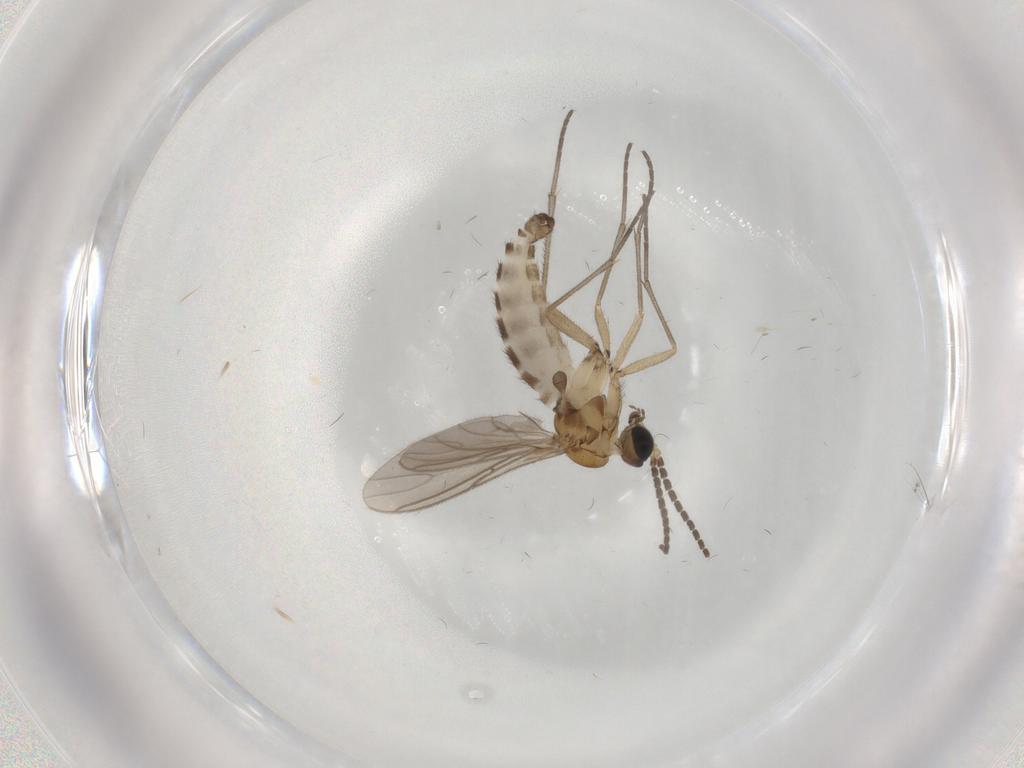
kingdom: Animalia
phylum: Arthropoda
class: Insecta
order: Diptera
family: Sciaridae
